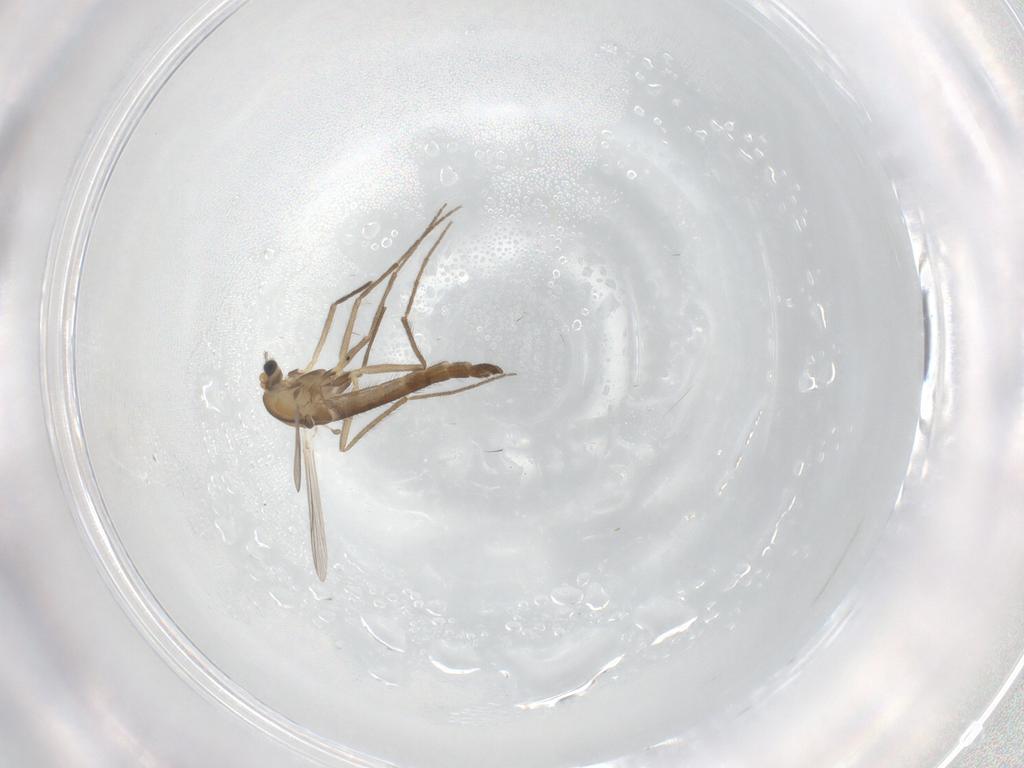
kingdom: Animalia
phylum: Arthropoda
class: Insecta
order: Diptera
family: Chironomidae
